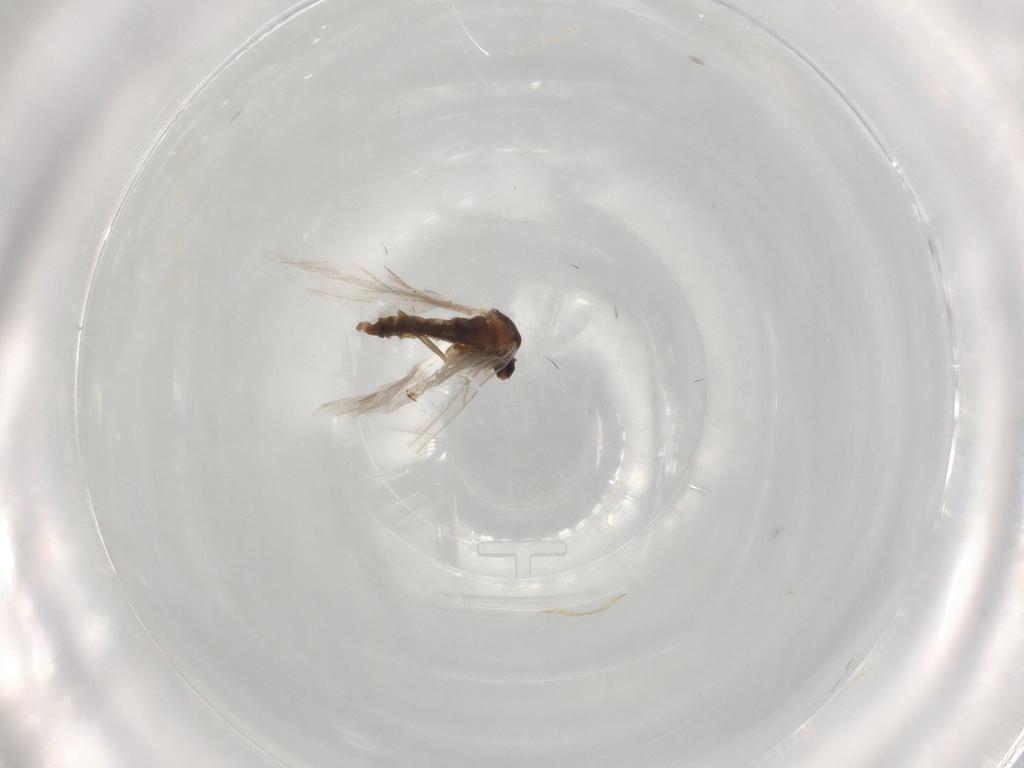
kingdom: Animalia
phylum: Arthropoda
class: Insecta
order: Diptera
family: Cecidomyiidae
